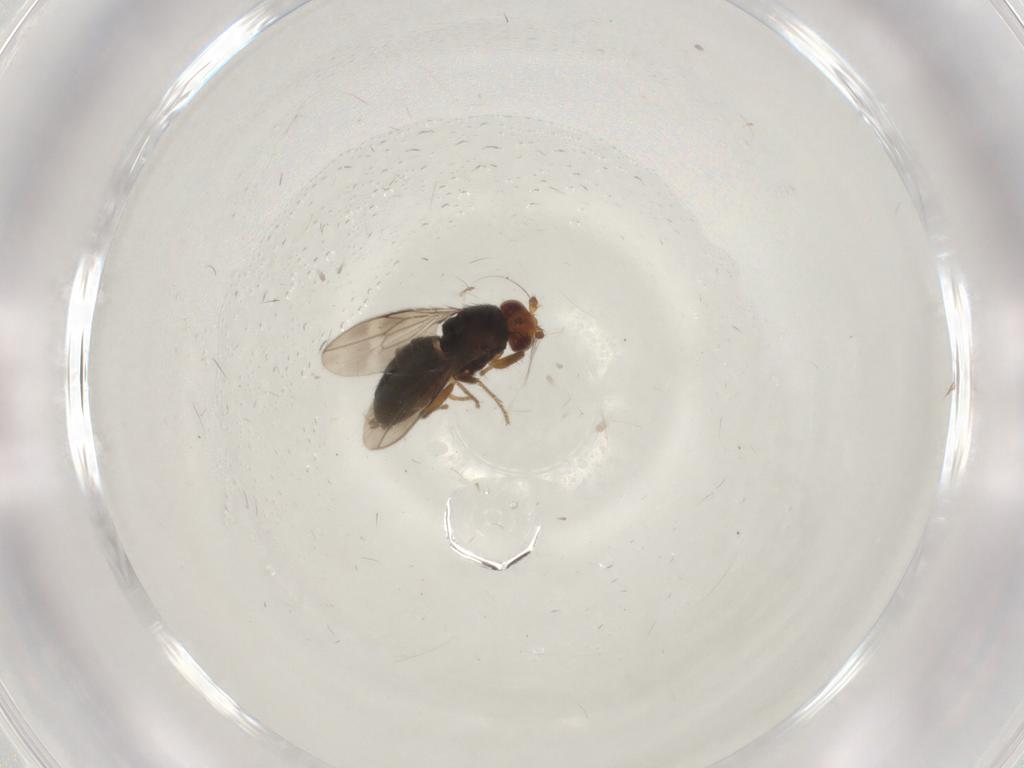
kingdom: Animalia
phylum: Arthropoda
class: Insecta
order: Diptera
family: Sphaeroceridae
